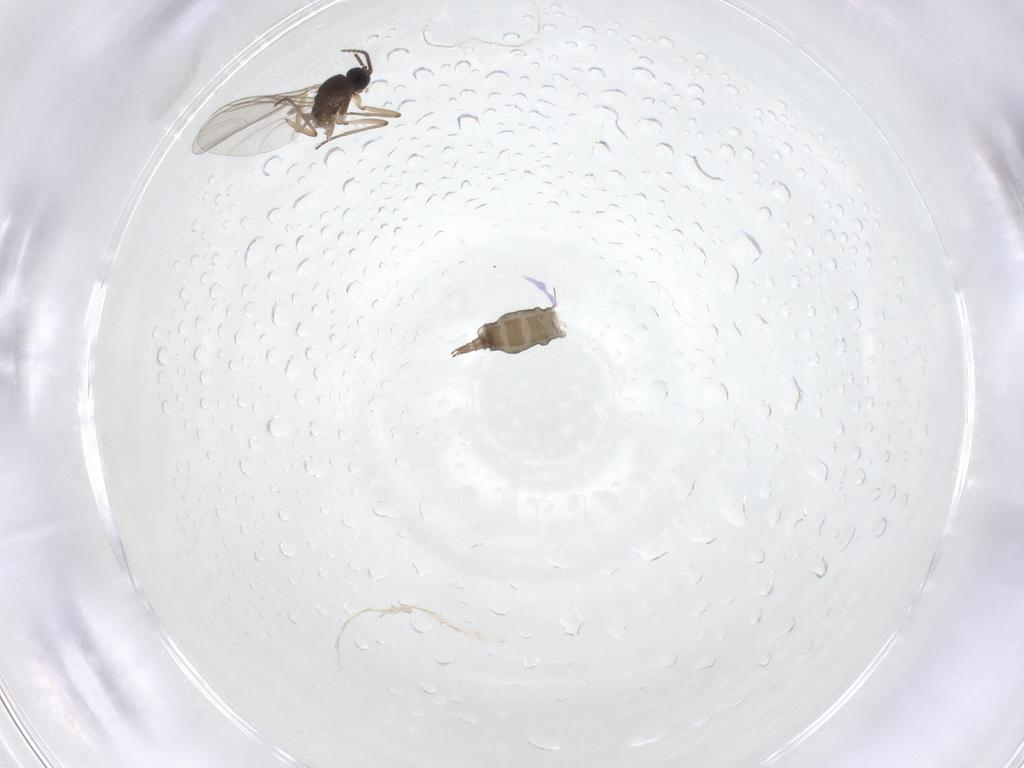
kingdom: Animalia
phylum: Arthropoda
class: Insecta
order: Diptera
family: Sciaridae
